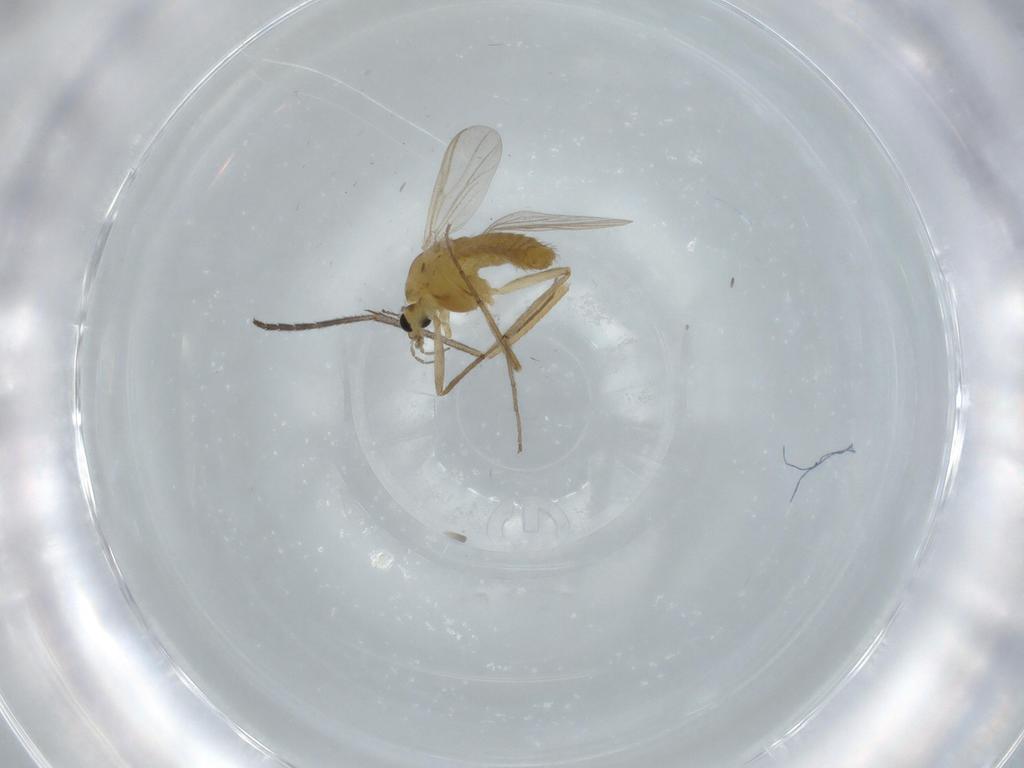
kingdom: Animalia
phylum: Arthropoda
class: Insecta
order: Diptera
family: Chironomidae
